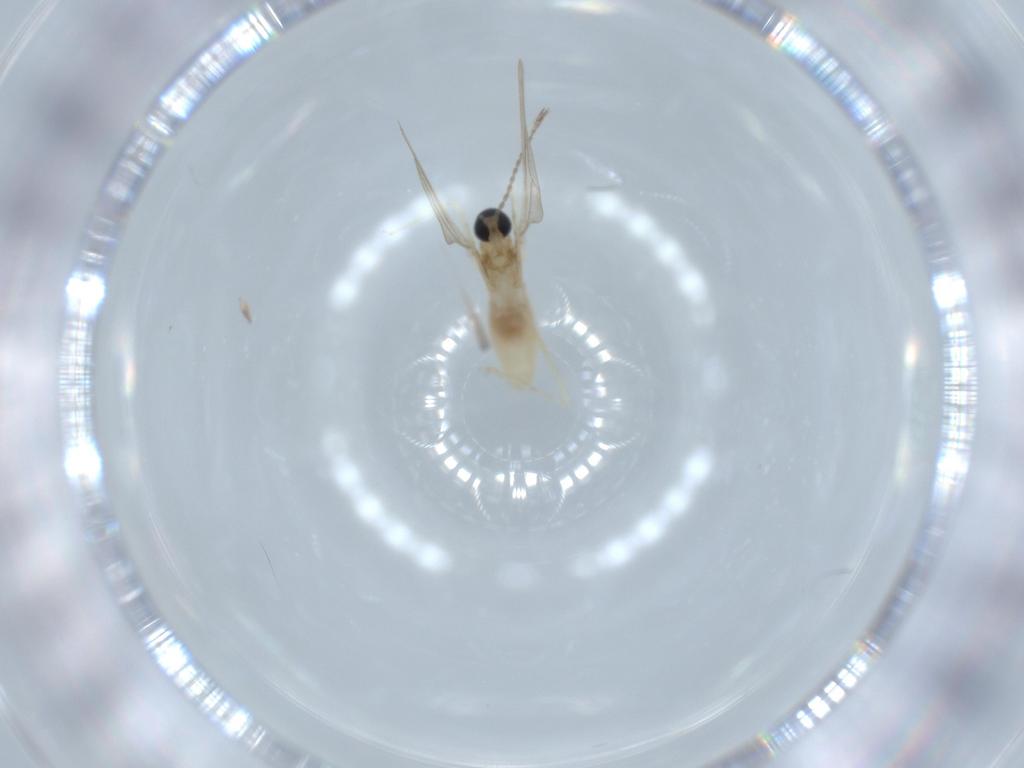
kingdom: Animalia
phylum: Arthropoda
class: Insecta
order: Diptera
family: Cecidomyiidae
